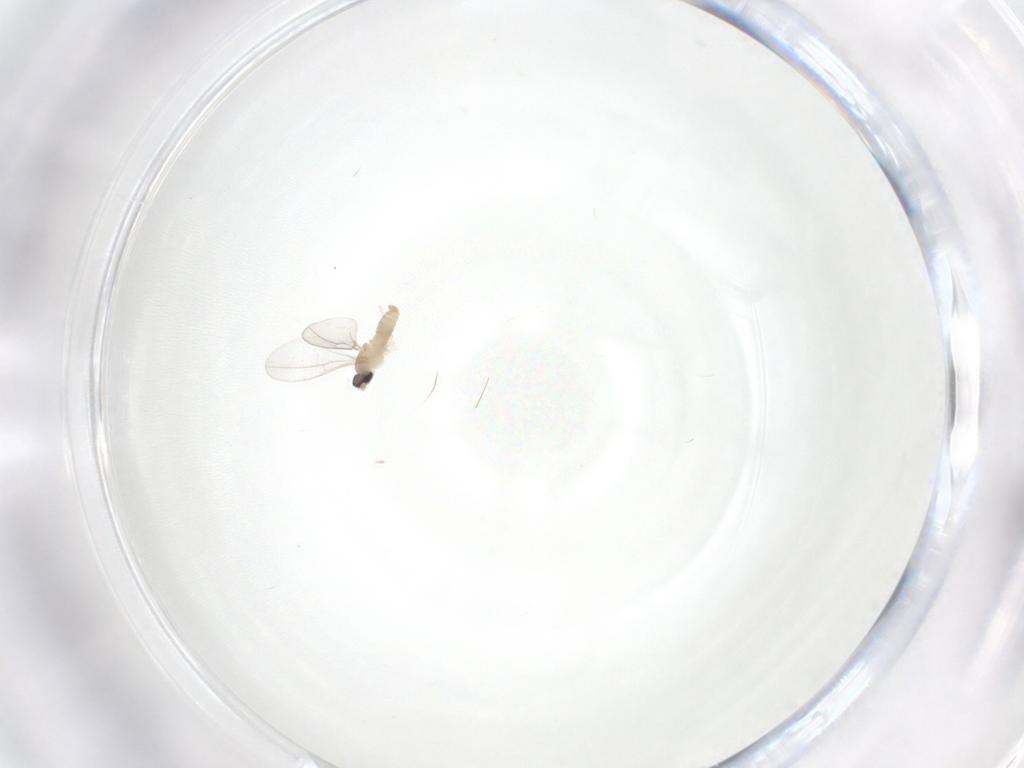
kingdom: Animalia
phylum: Arthropoda
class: Insecta
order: Diptera
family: Cecidomyiidae
